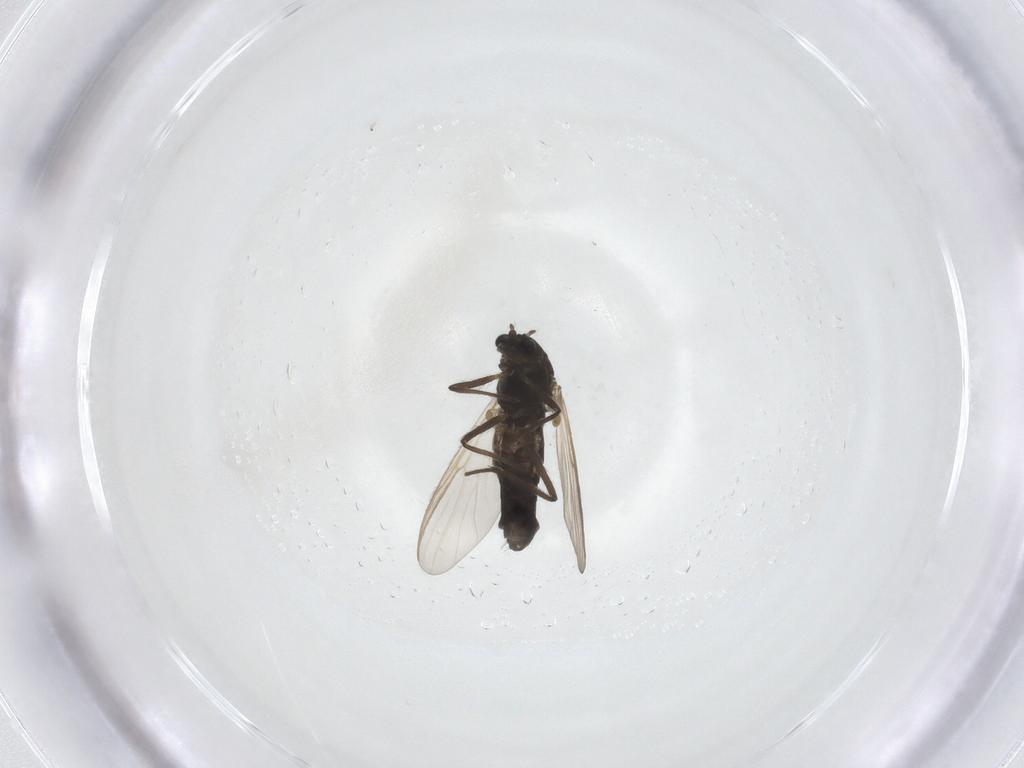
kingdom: Animalia
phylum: Arthropoda
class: Insecta
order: Diptera
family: Chironomidae
